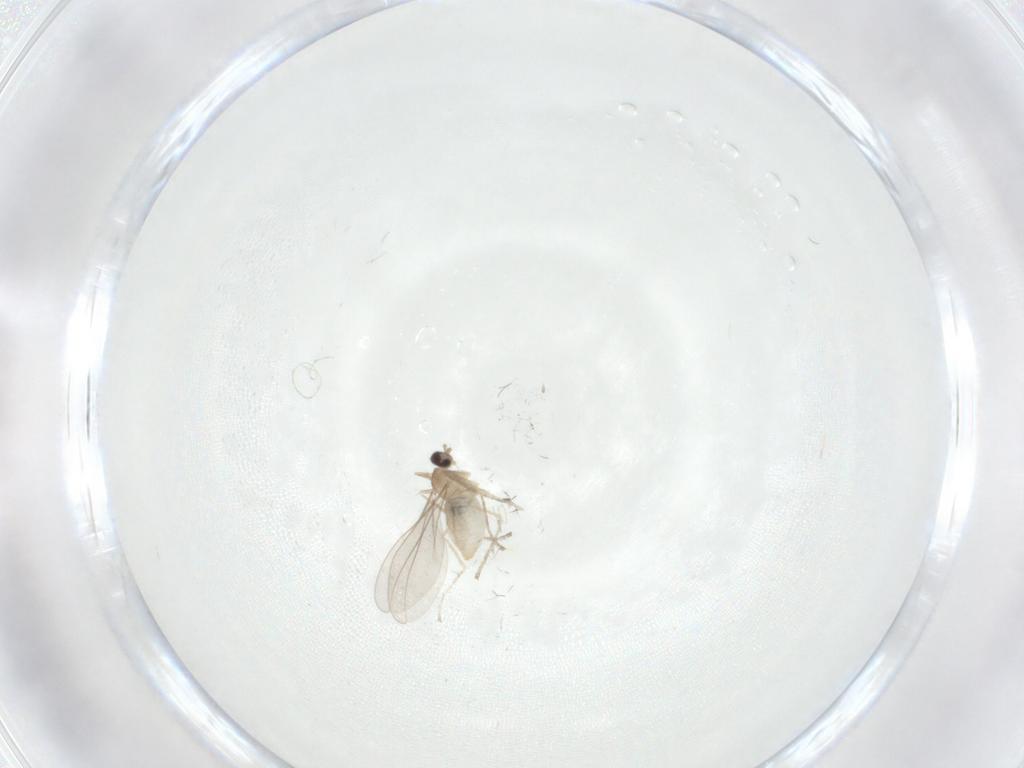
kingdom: Animalia
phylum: Arthropoda
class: Insecta
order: Diptera
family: Cecidomyiidae
